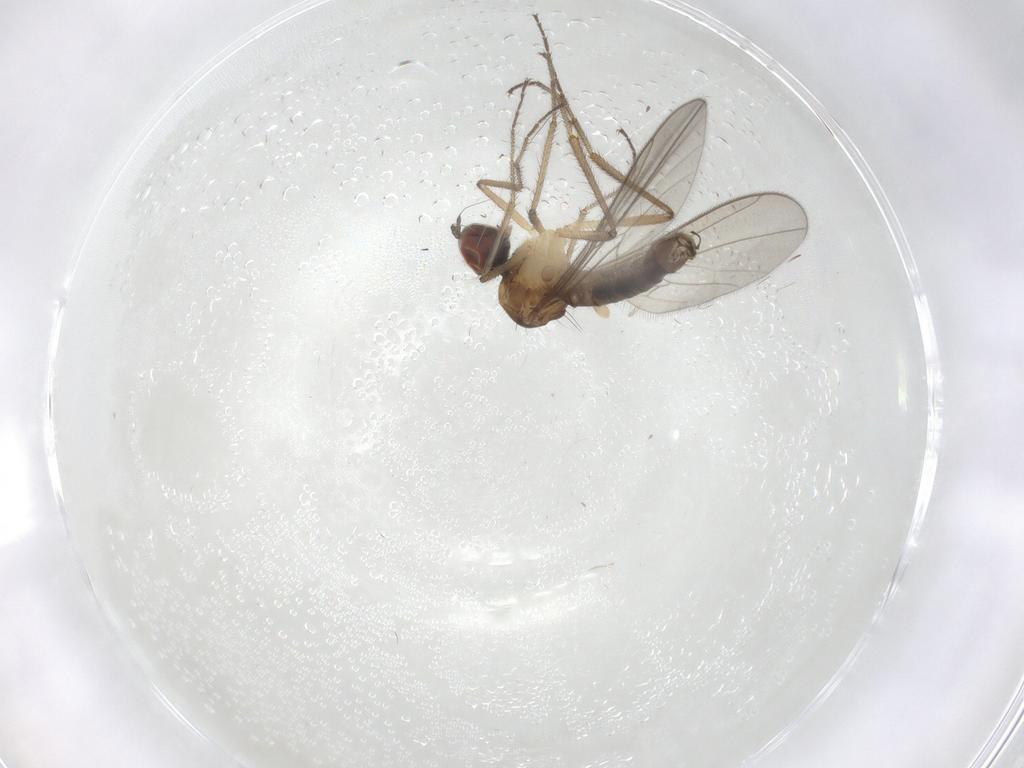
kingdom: Animalia
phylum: Arthropoda
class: Insecta
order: Diptera
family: Hybotidae
